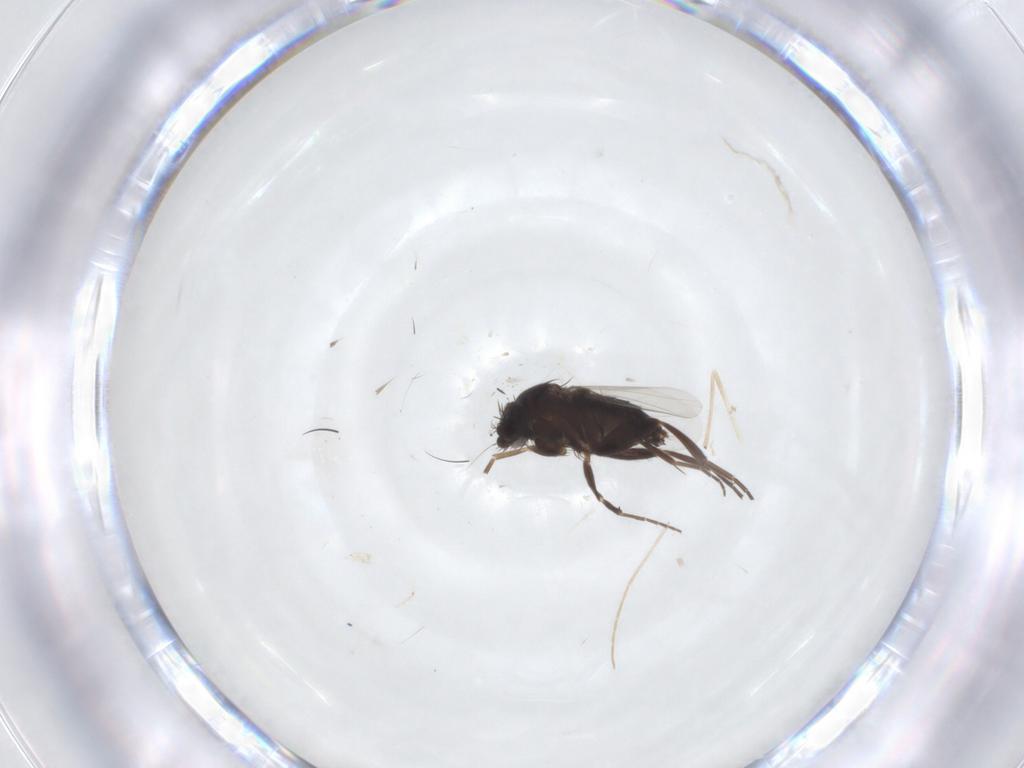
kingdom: Animalia
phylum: Arthropoda
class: Insecta
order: Diptera
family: Phoridae
